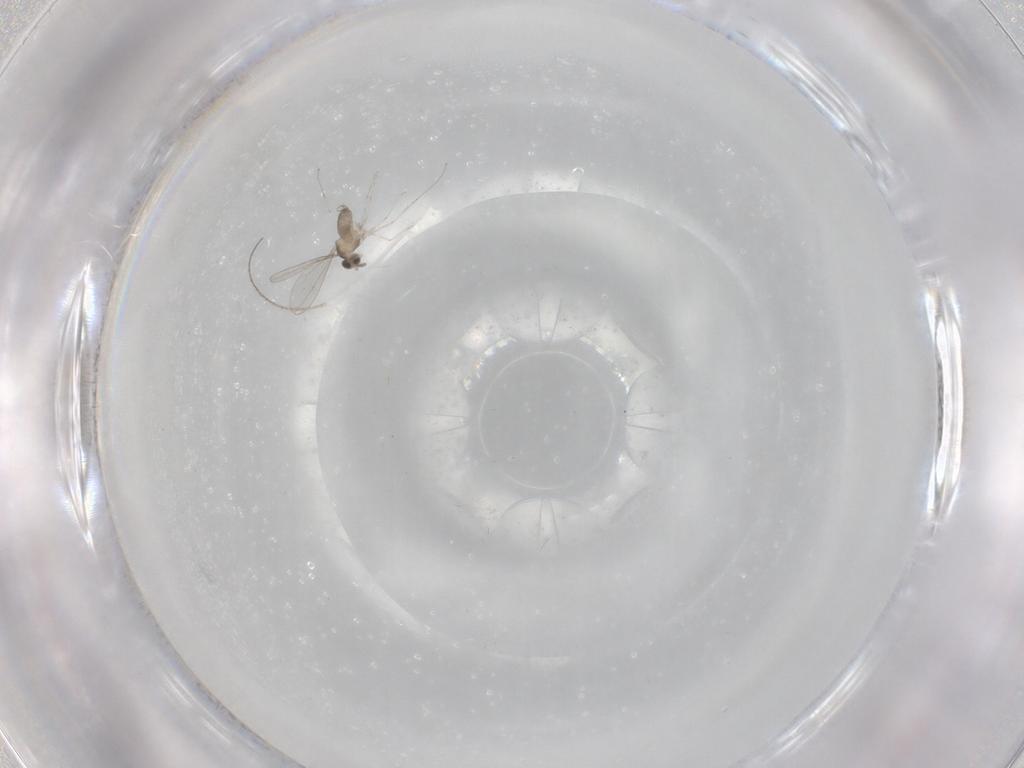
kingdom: Animalia
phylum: Arthropoda
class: Insecta
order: Diptera
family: Cecidomyiidae
